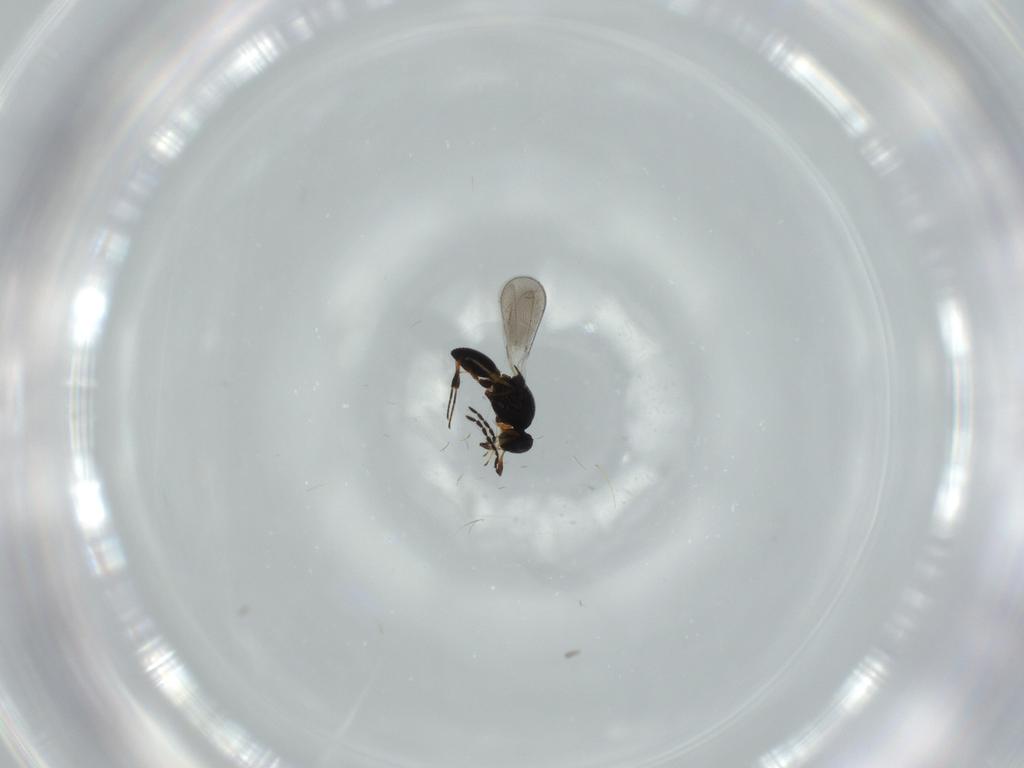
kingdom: Animalia
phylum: Arthropoda
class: Insecta
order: Hymenoptera
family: Platygastridae
